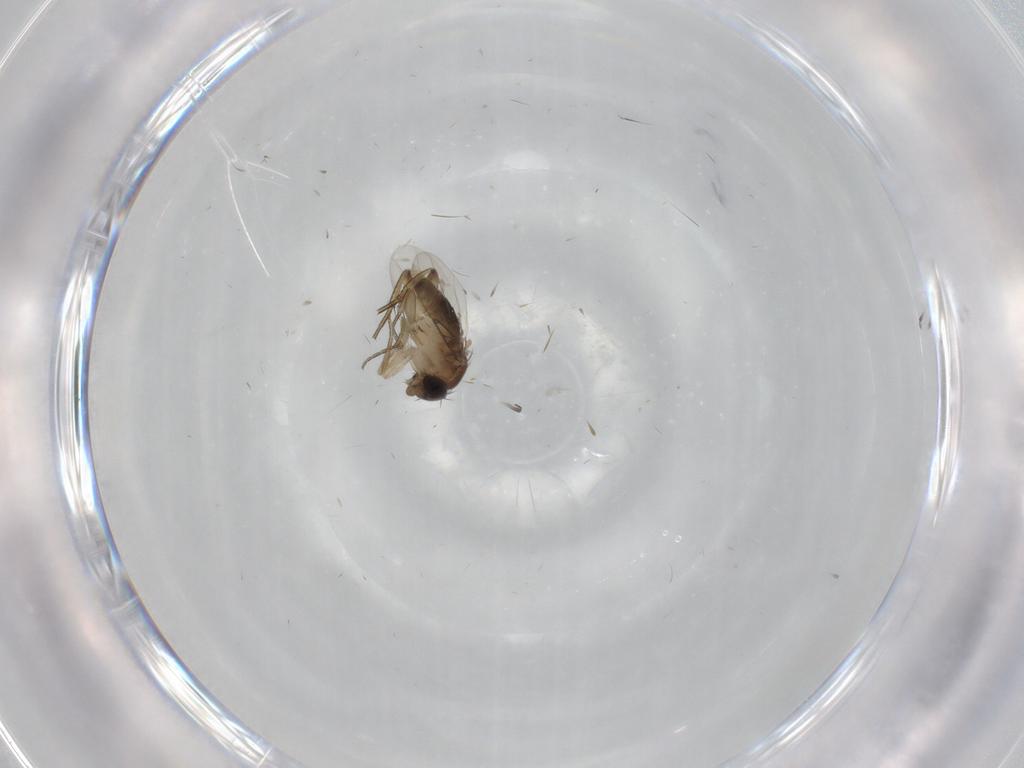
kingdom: Animalia
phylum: Arthropoda
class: Insecta
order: Diptera
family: Phoridae
